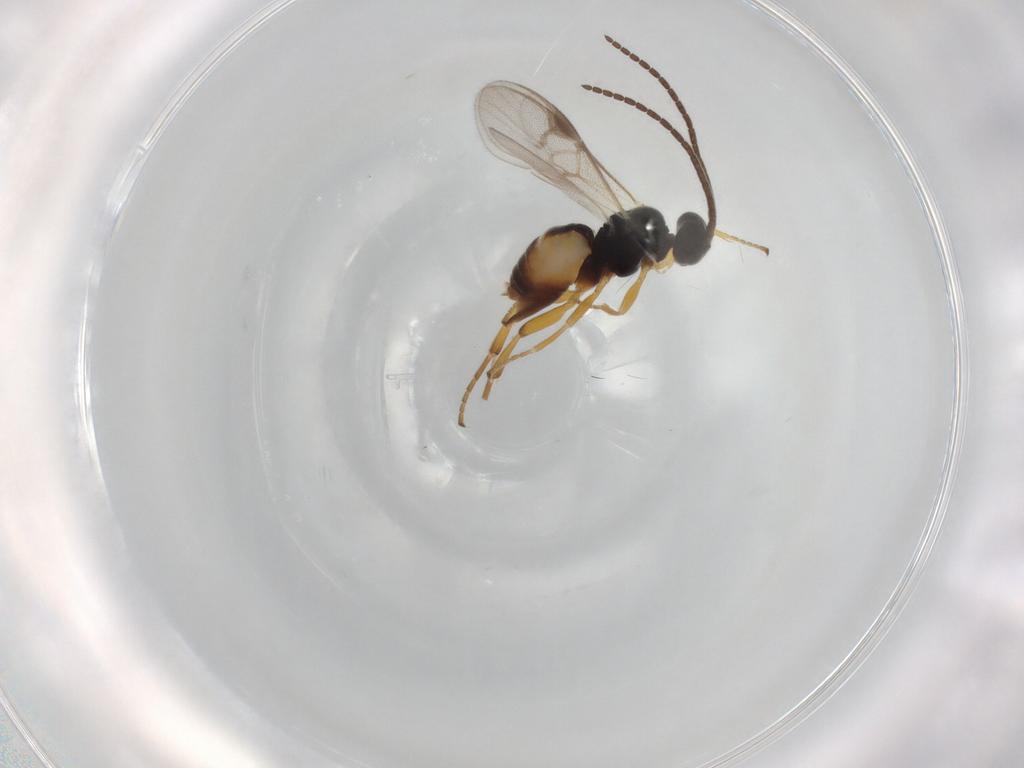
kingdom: Animalia
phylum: Arthropoda
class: Insecta
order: Hymenoptera
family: Braconidae
